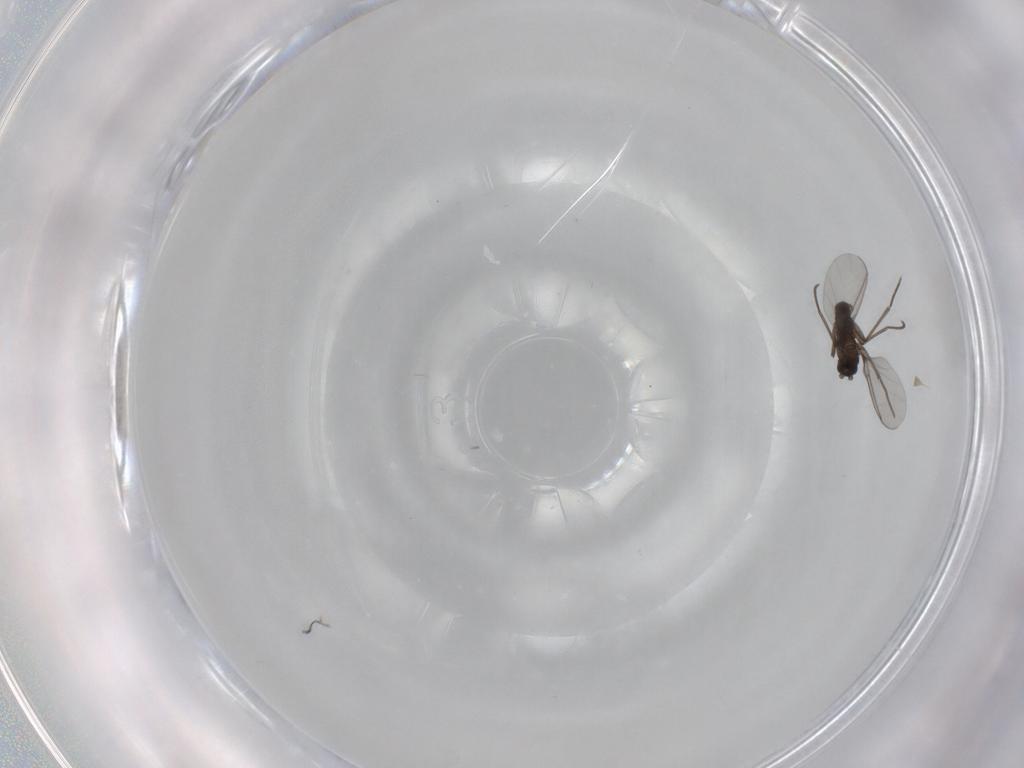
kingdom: Animalia
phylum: Arthropoda
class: Insecta
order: Diptera
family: Sciaridae
